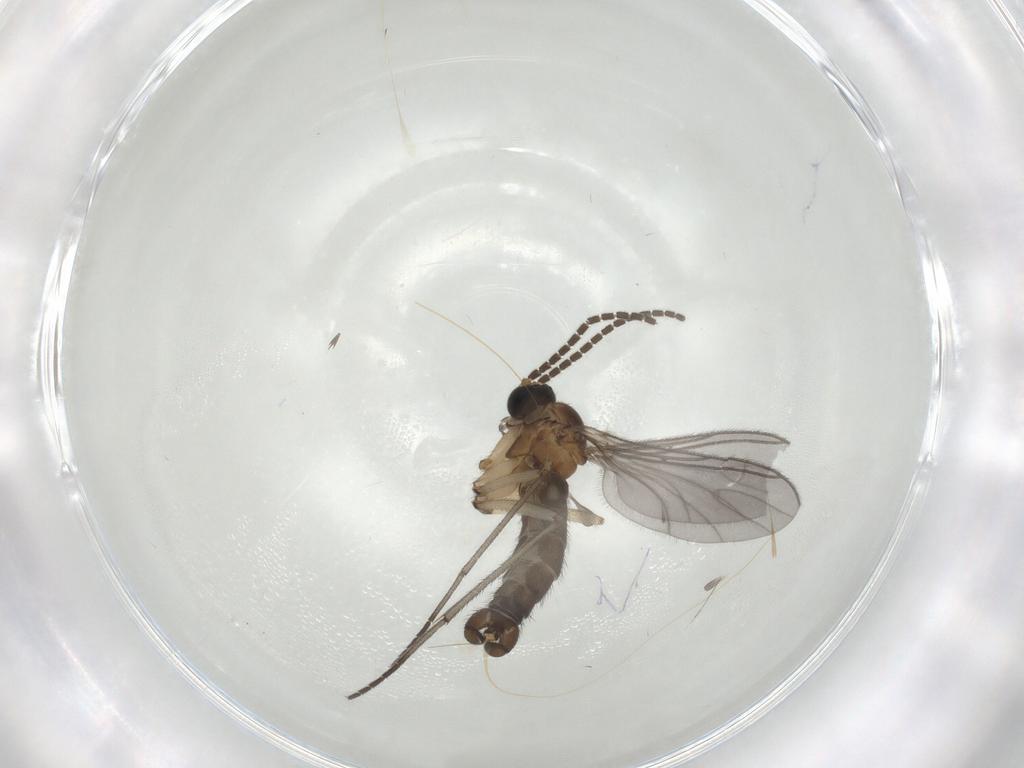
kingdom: Animalia
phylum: Arthropoda
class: Insecta
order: Diptera
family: Sciaridae
